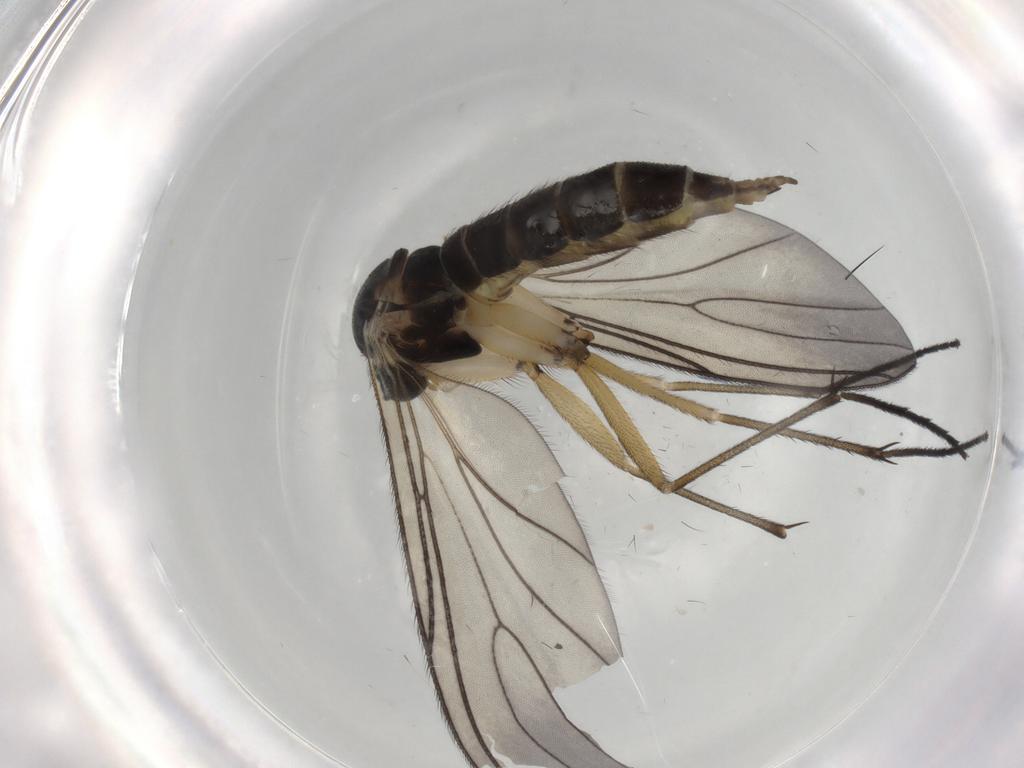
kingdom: Animalia
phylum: Arthropoda
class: Insecta
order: Diptera
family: Sciaridae
